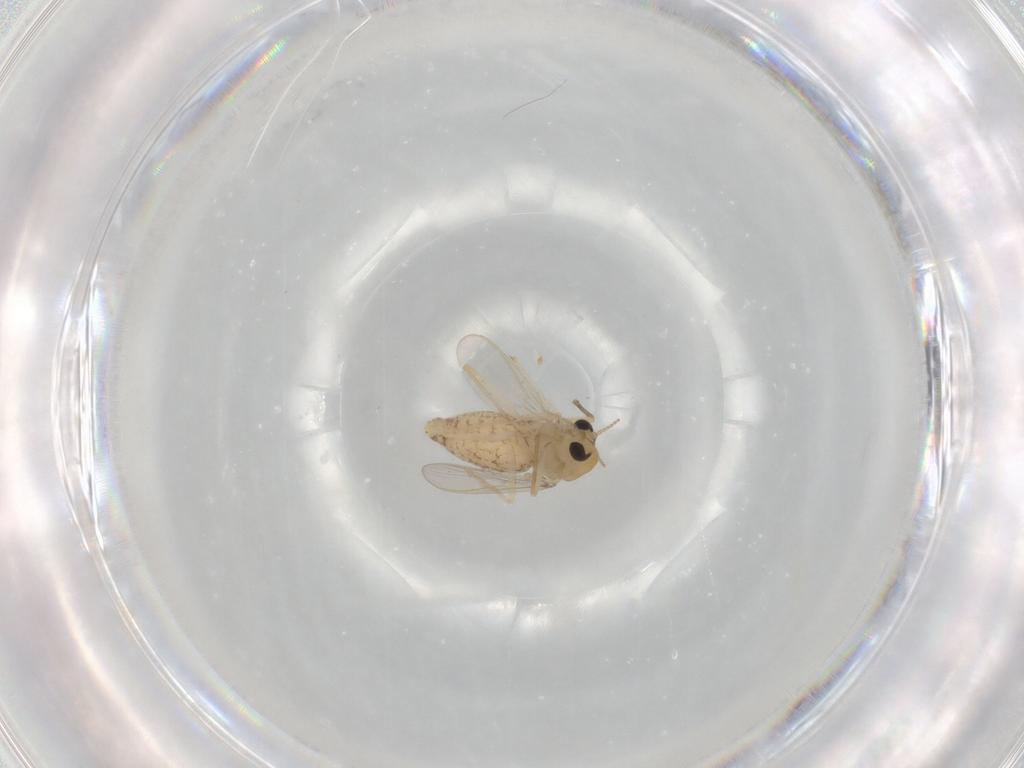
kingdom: Animalia
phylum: Arthropoda
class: Insecta
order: Diptera
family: Chironomidae
